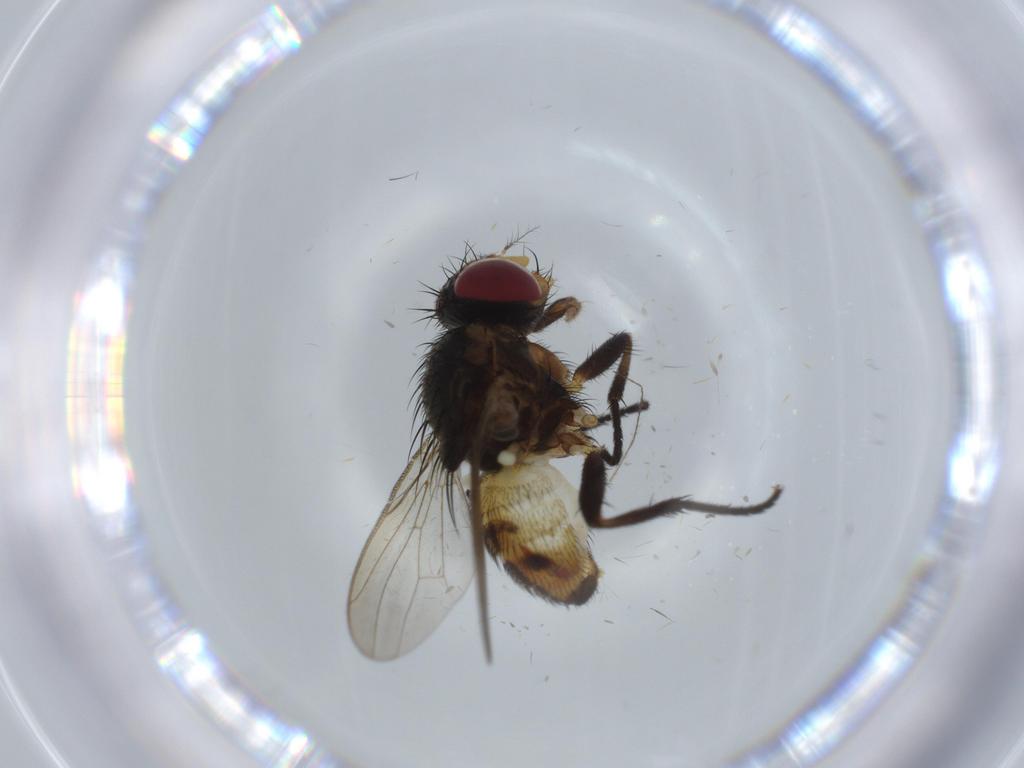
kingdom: Animalia
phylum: Arthropoda
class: Insecta
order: Diptera
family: Anthomyiidae
